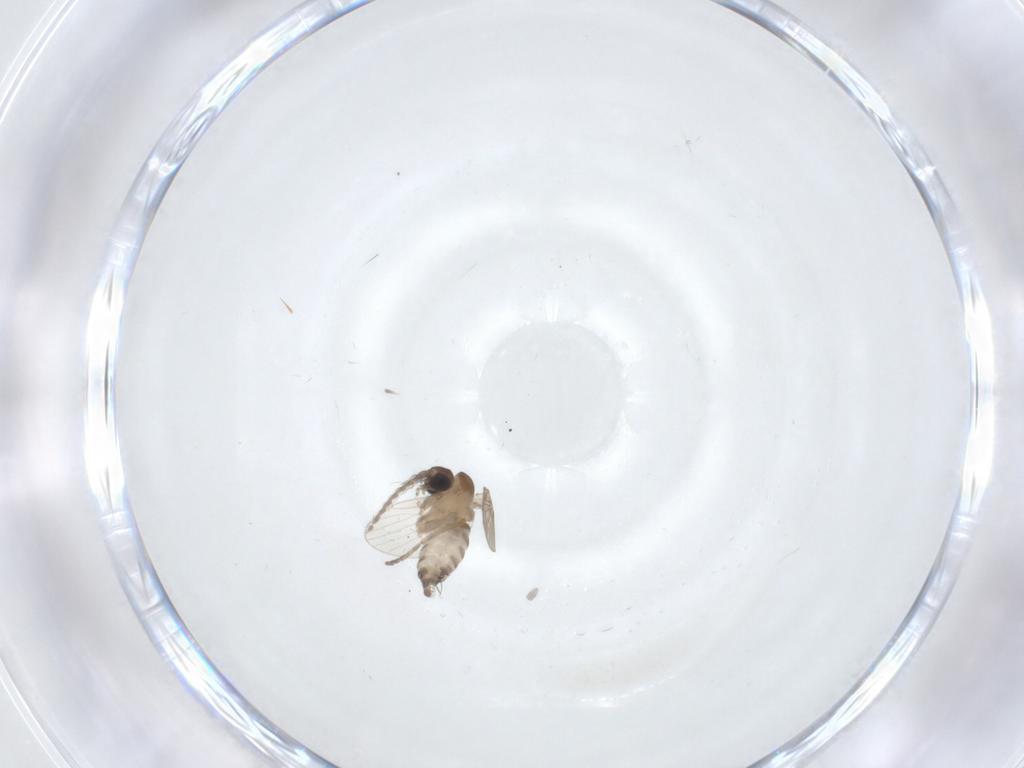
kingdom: Animalia
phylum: Arthropoda
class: Insecta
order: Diptera
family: Psychodidae
